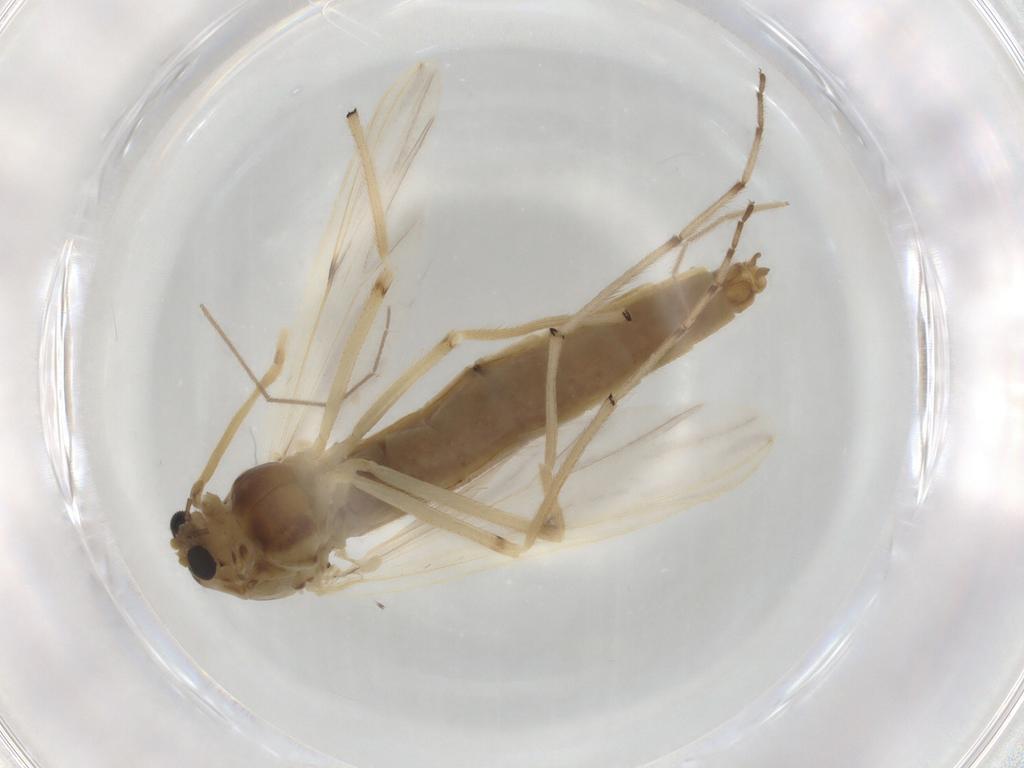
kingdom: Animalia
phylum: Arthropoda
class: Insecta
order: Diptera
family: Chironomidae
